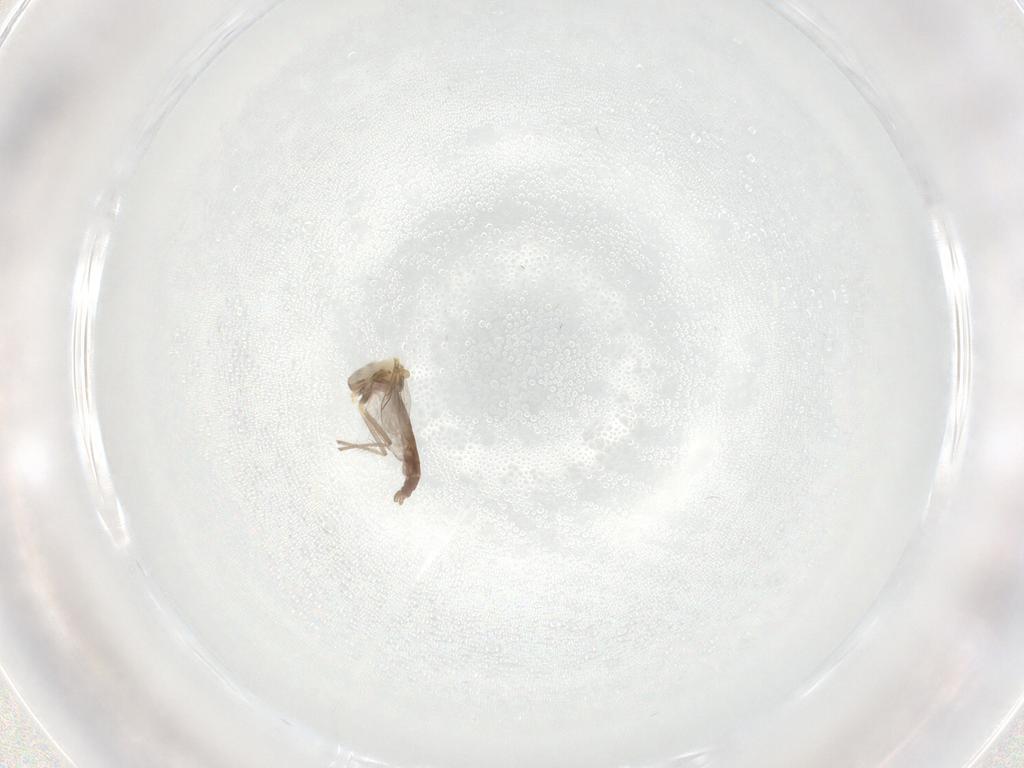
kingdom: Animalia
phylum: Arthropoda
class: Insecta
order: Diptera
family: Chironomidae
